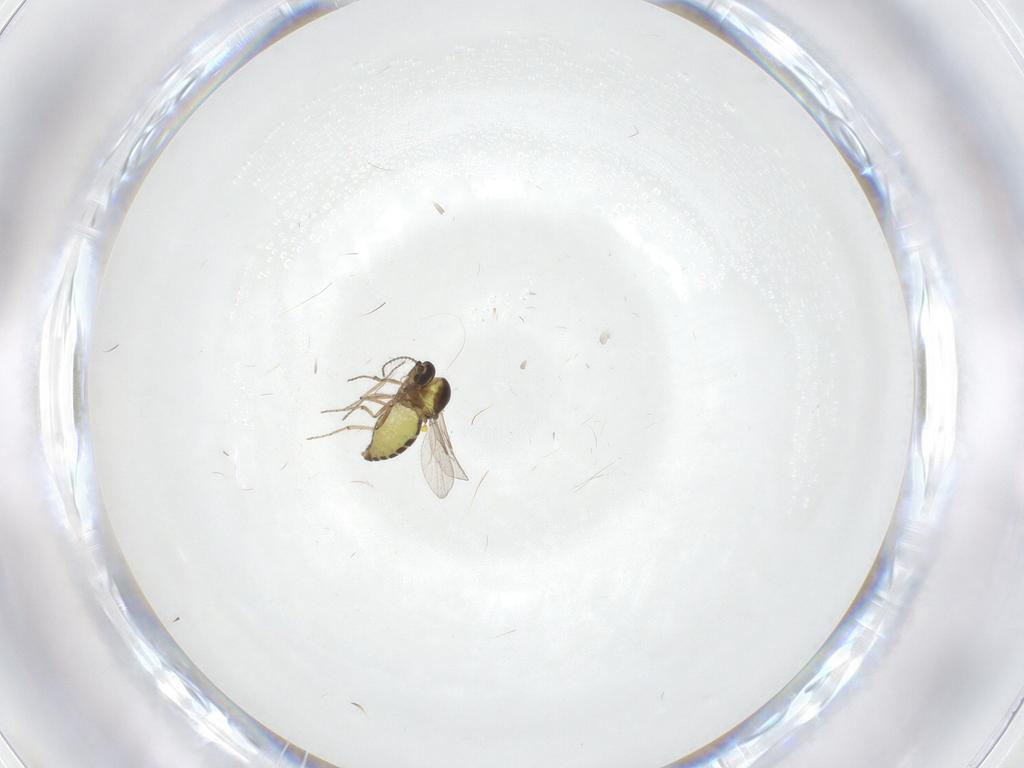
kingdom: Animalia
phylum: Arthropoda
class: Insecta
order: Diptera
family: Ceratopogonidae
